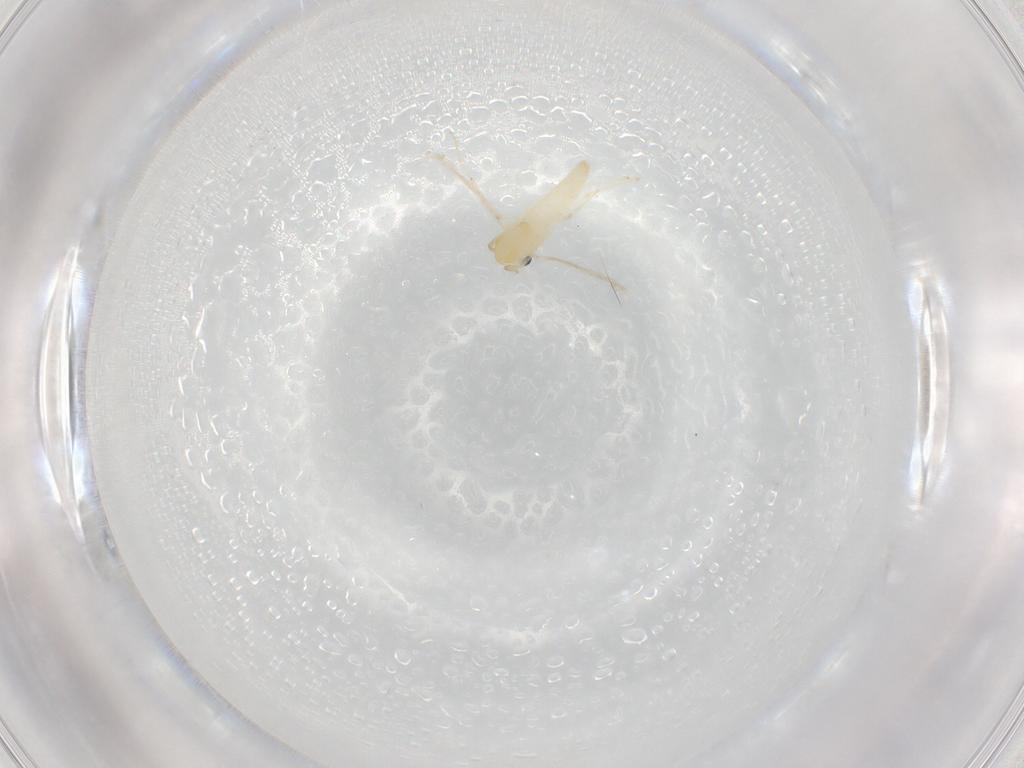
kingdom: Animalia
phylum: Arthropoda
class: Insecta
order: Diptera
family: Chironomidae
